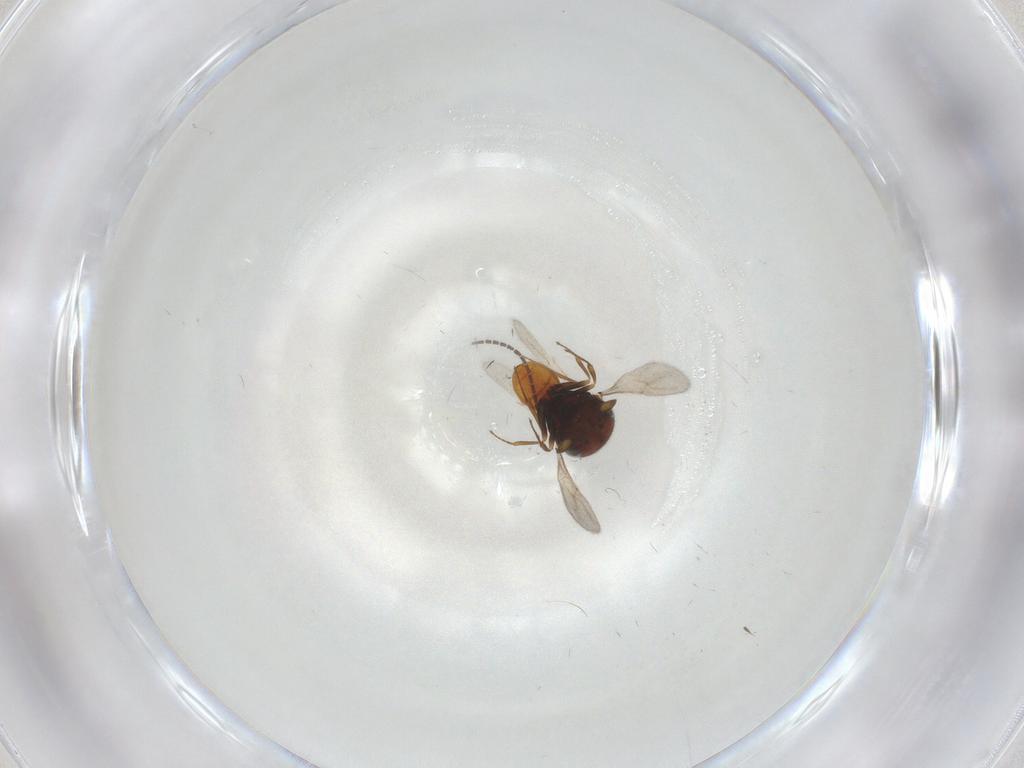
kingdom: Animalia
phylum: Arthropoda
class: Insecta
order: Hymenoptera
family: Scelionidae
